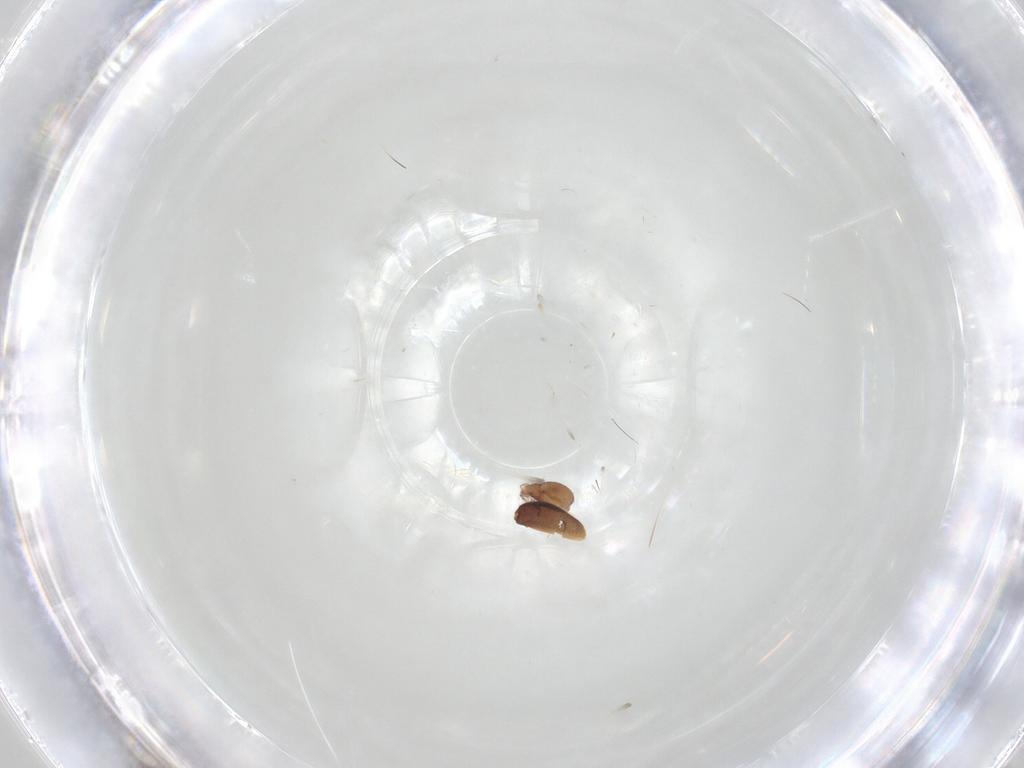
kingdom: Animalia
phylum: Arthropoda
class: Arachnida
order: Sarcoptiformes
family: Oribatulidae
